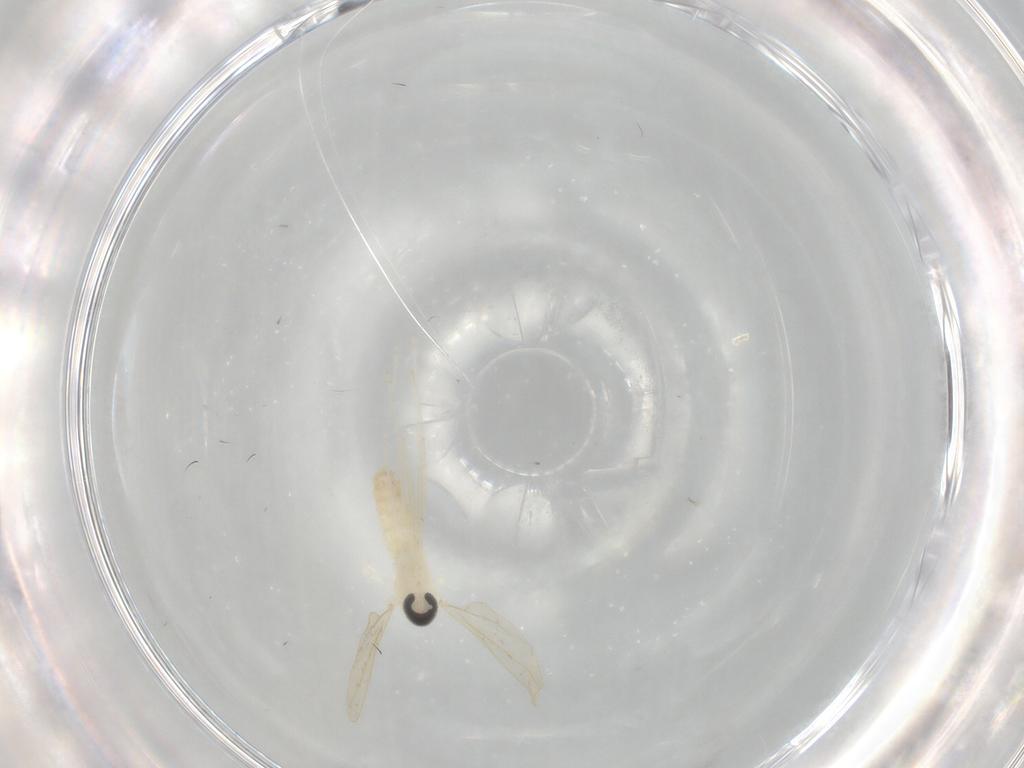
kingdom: Animalia
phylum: Arthropoda
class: Insecta
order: Diptera
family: Cecidomyiidae
